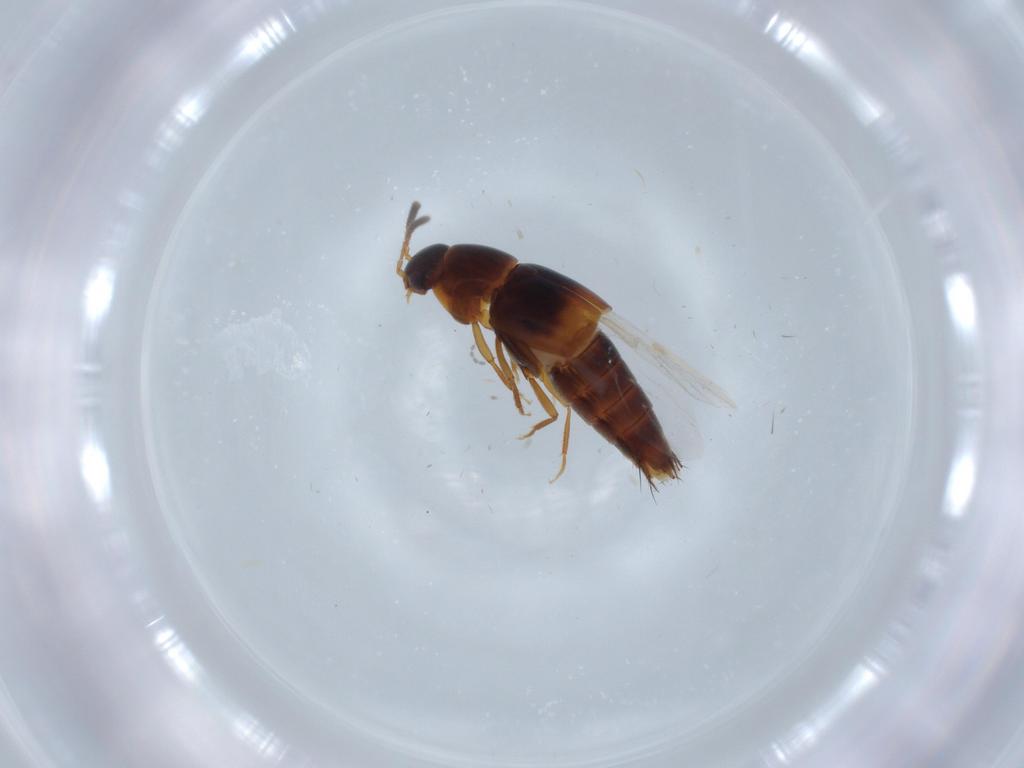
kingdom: Animalia
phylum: Arthropoda
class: Insecta
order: Coleoptera
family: Staphylinidae
